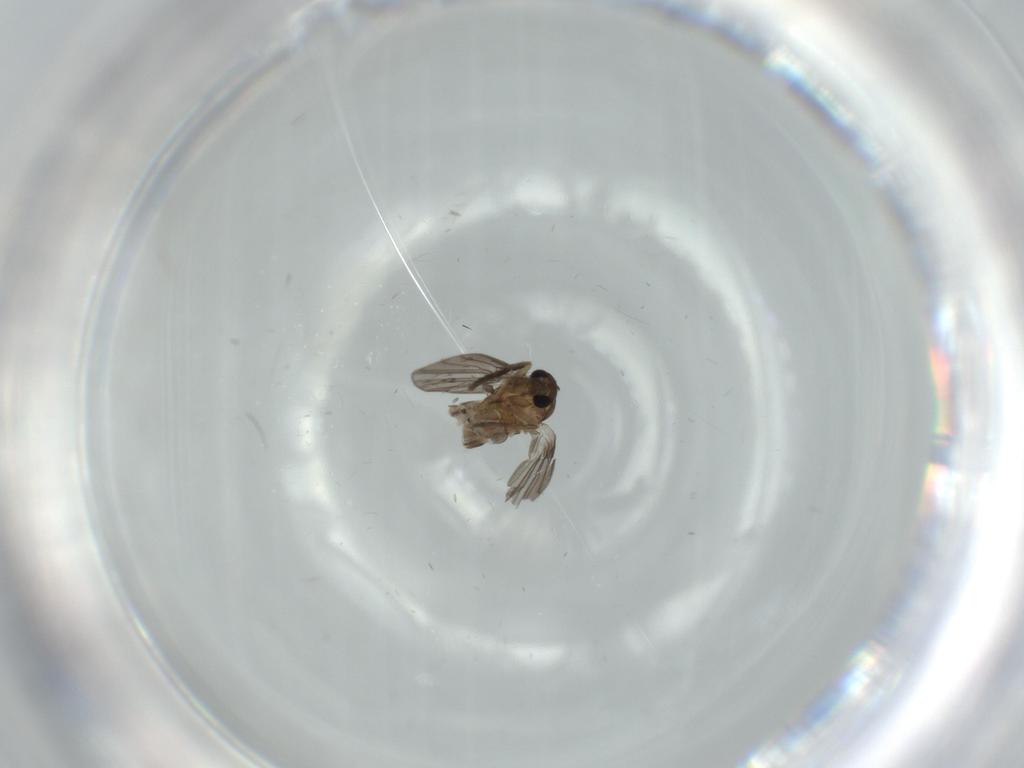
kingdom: Animalia
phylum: Arthropoda
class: Insecta
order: Diptera
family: Psychodidae
